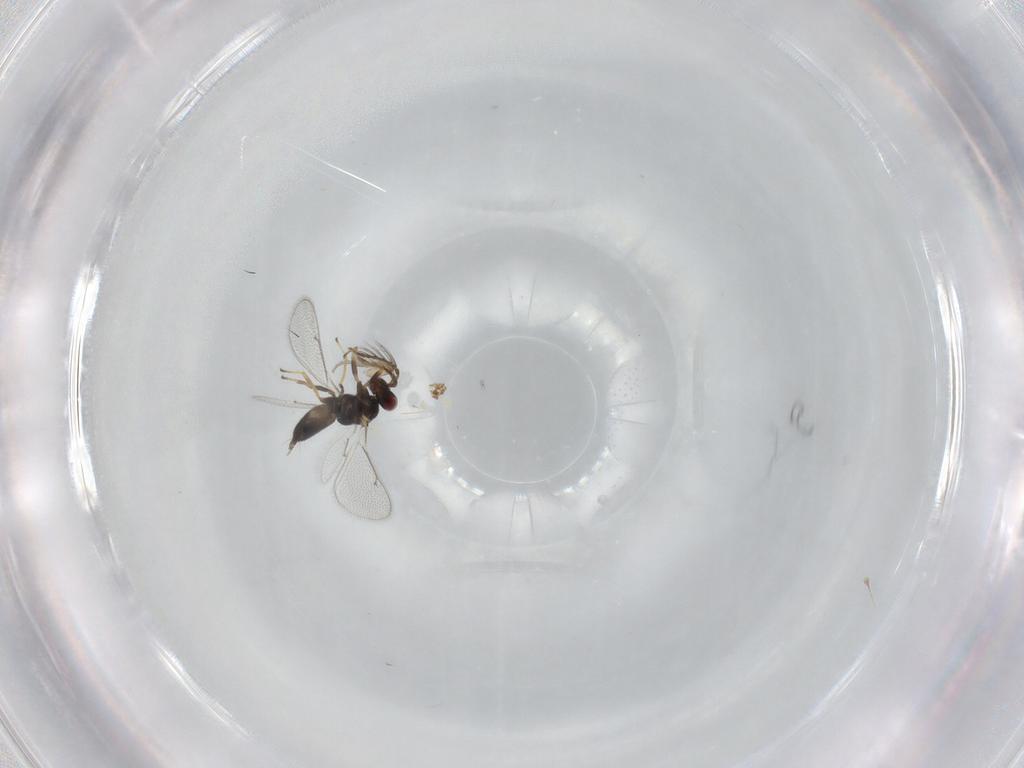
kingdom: Animalia
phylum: Arthropoda
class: Insecta
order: Hymenoptera
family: Eulophidae
